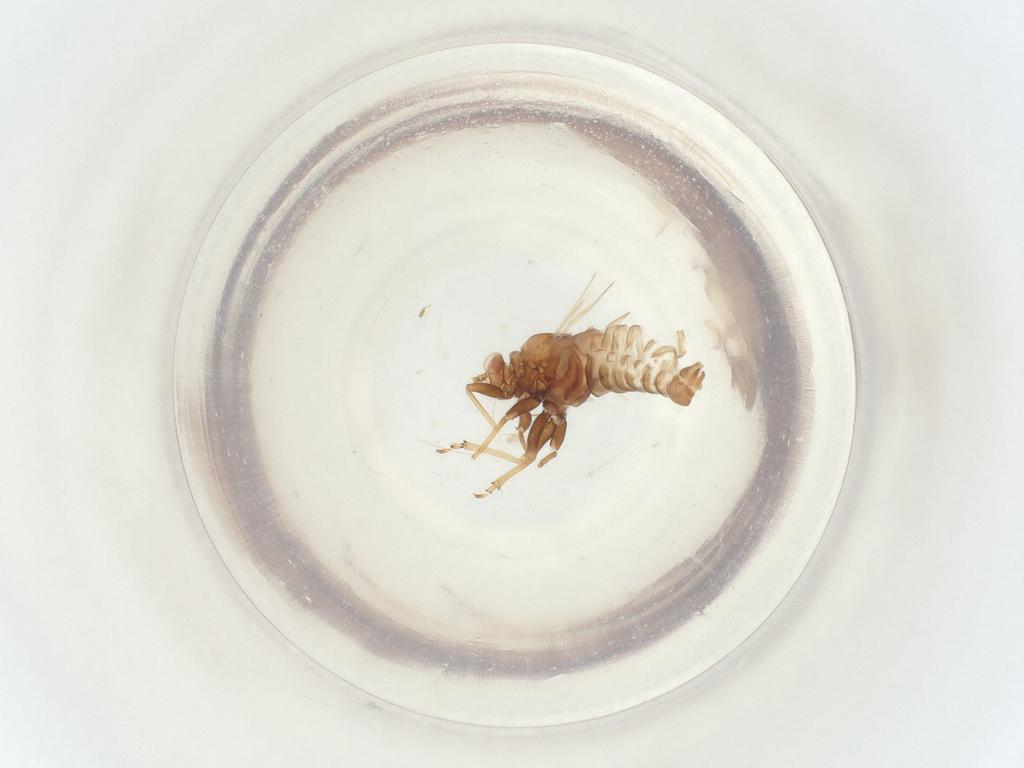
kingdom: Animalia
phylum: Arthropoda
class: Insecta
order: Hemiptera
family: Psyllidae
